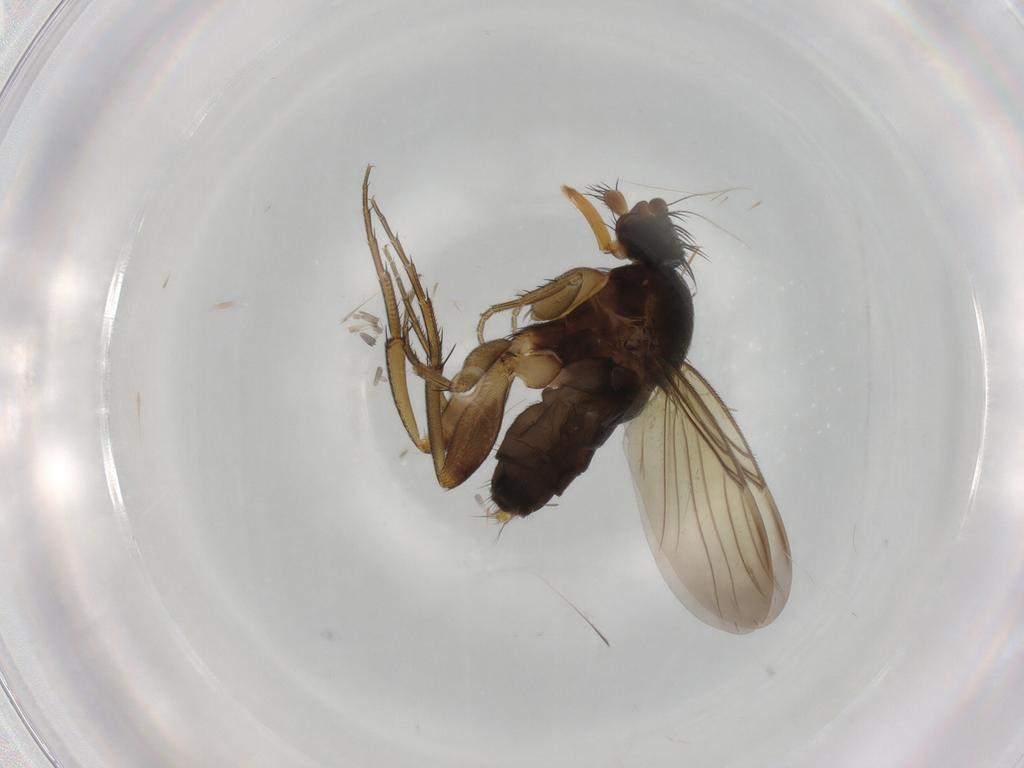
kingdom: Animalia
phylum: Arthropoda
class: Insecta
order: Diptera
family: Phoridae
